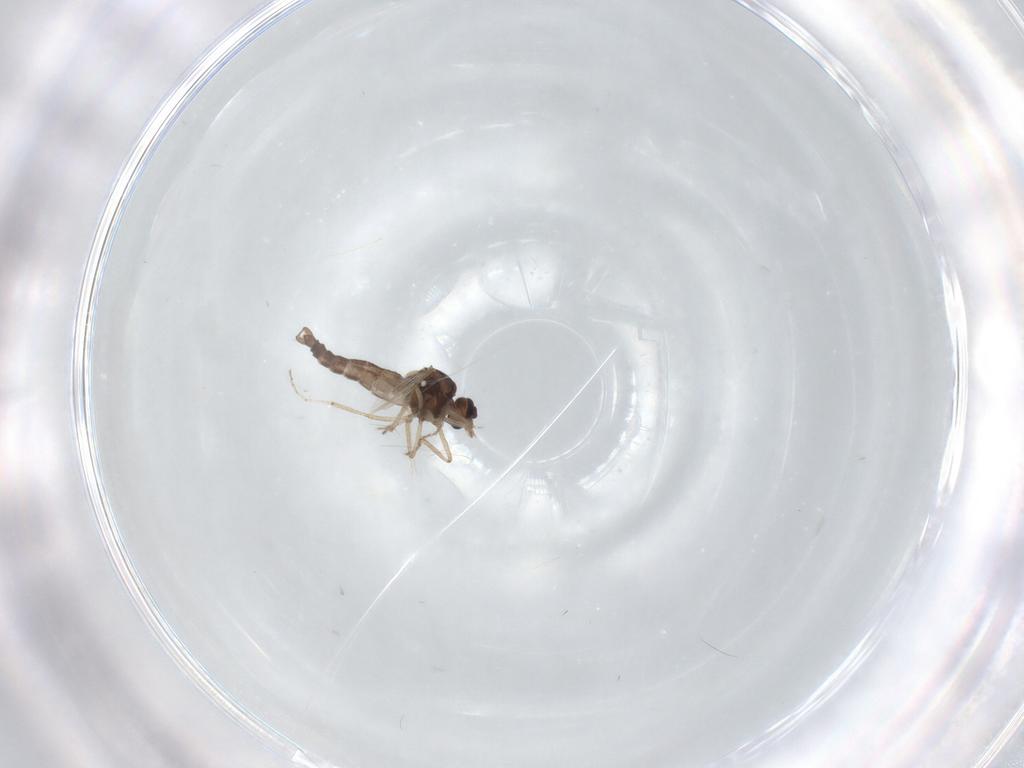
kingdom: Animalia
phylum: Arthropoda
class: Insecta
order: Diptera
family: Ceratopogonidae
